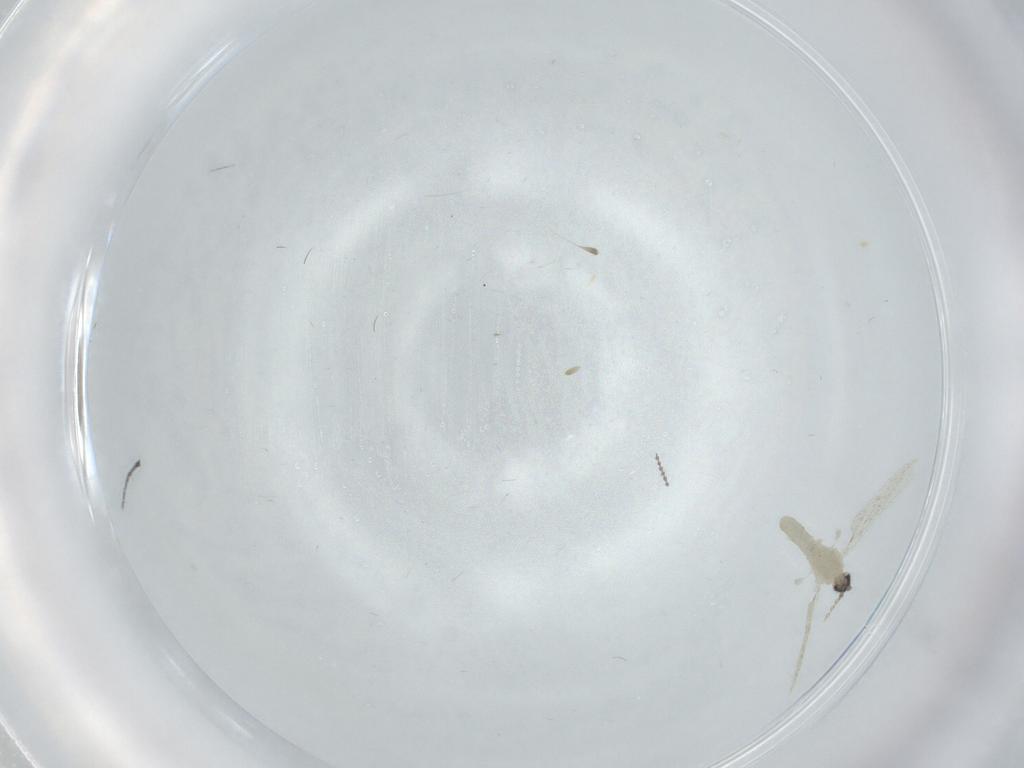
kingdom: Animalia
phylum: Arthropoda
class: Insecta
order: Diptera
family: Cecidomyiidae
